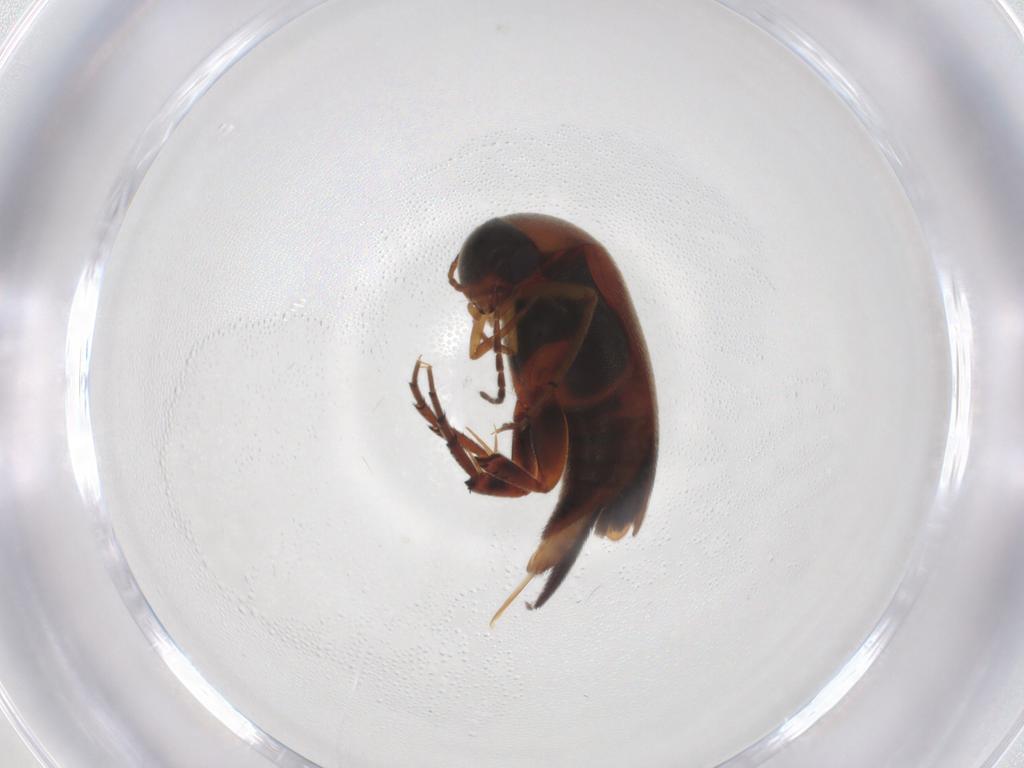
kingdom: Animalia
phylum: Arthropoda
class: Insecta
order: Coleoptera
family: Mordellidae
